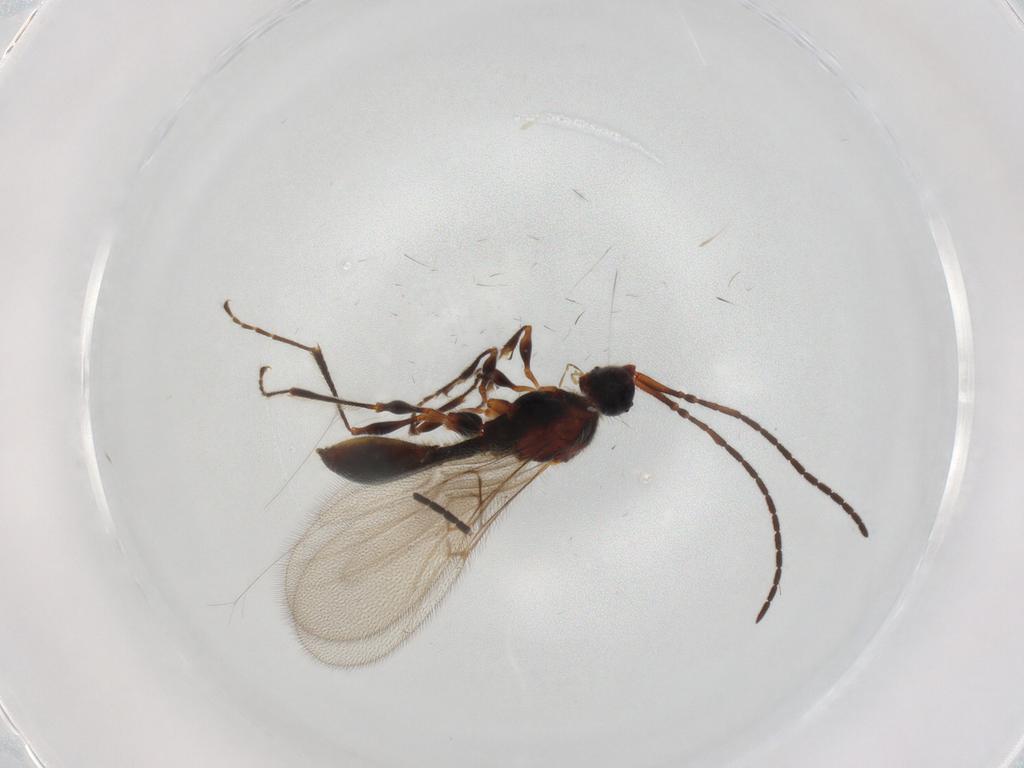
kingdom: Animalia
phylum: Arthropoda
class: Insecta
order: Hymenoptera
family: Diapriidae
